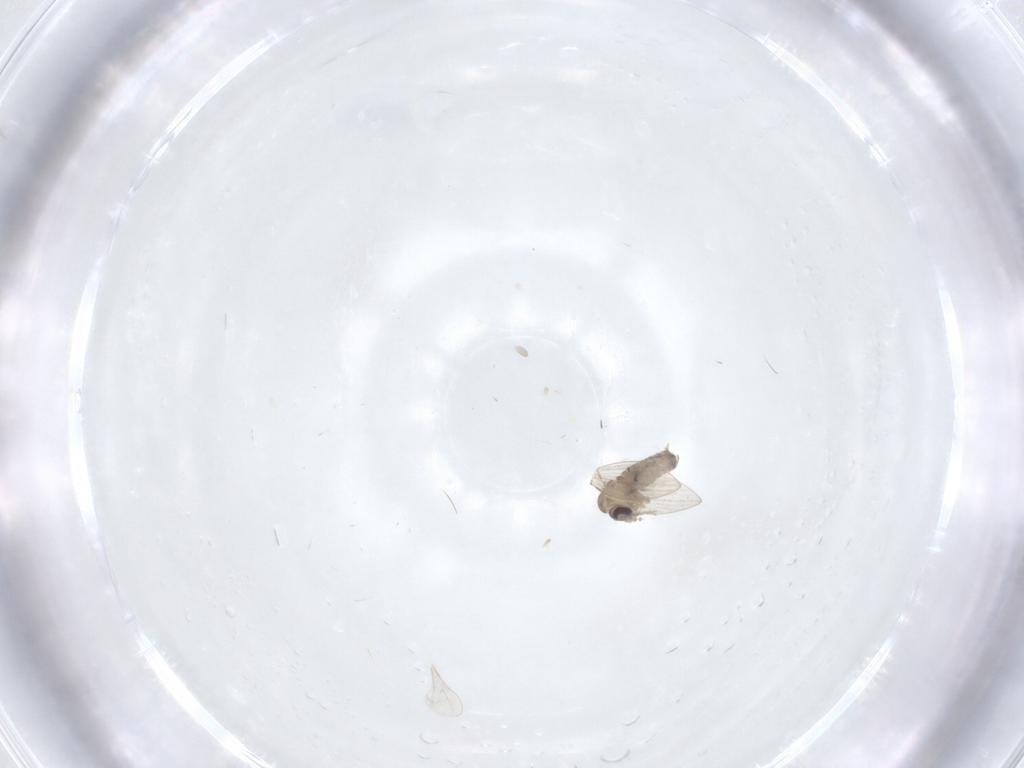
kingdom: Animalia
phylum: Arthropoda
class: Insecta
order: Diptera
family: Psychodidae
